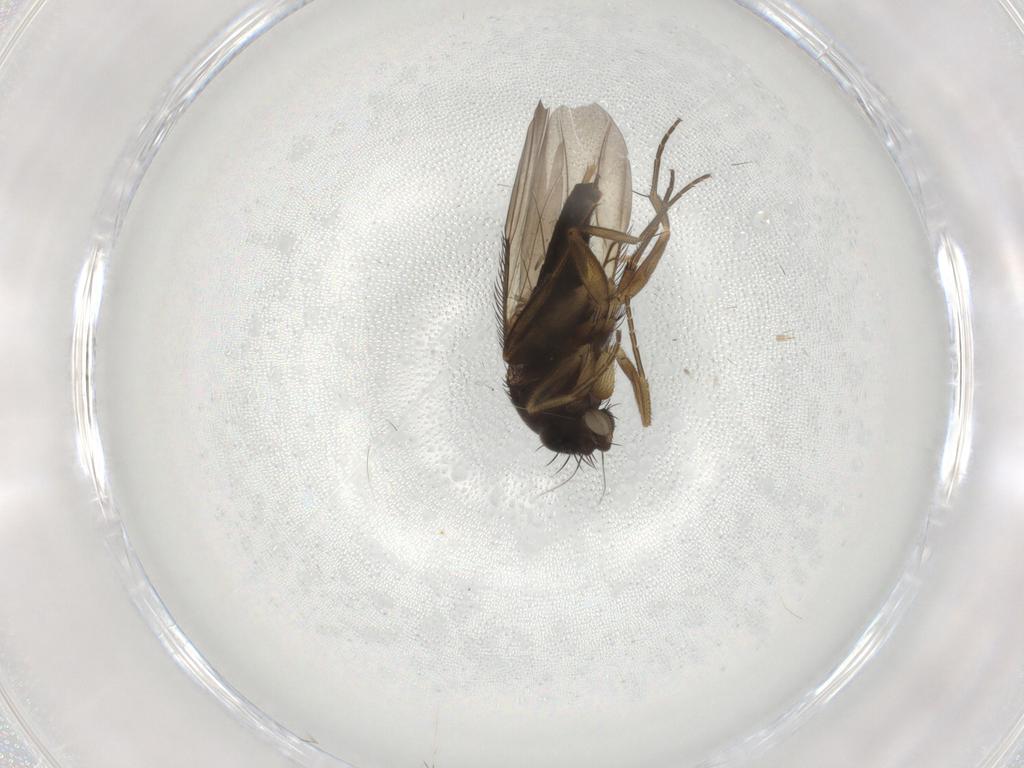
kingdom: Animalia
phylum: Arthropoda
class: Insecta
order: Diptera
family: Phoridae
